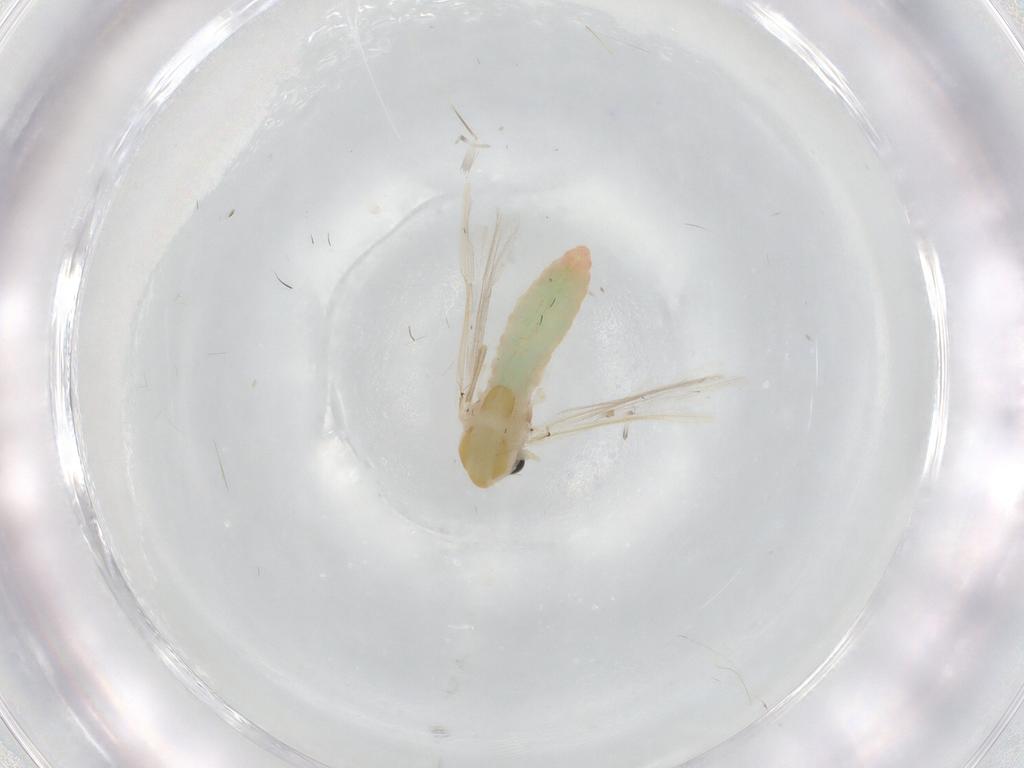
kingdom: Animalia
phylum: Arthropoda
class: Insecta
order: Diptera
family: Chironomidae
